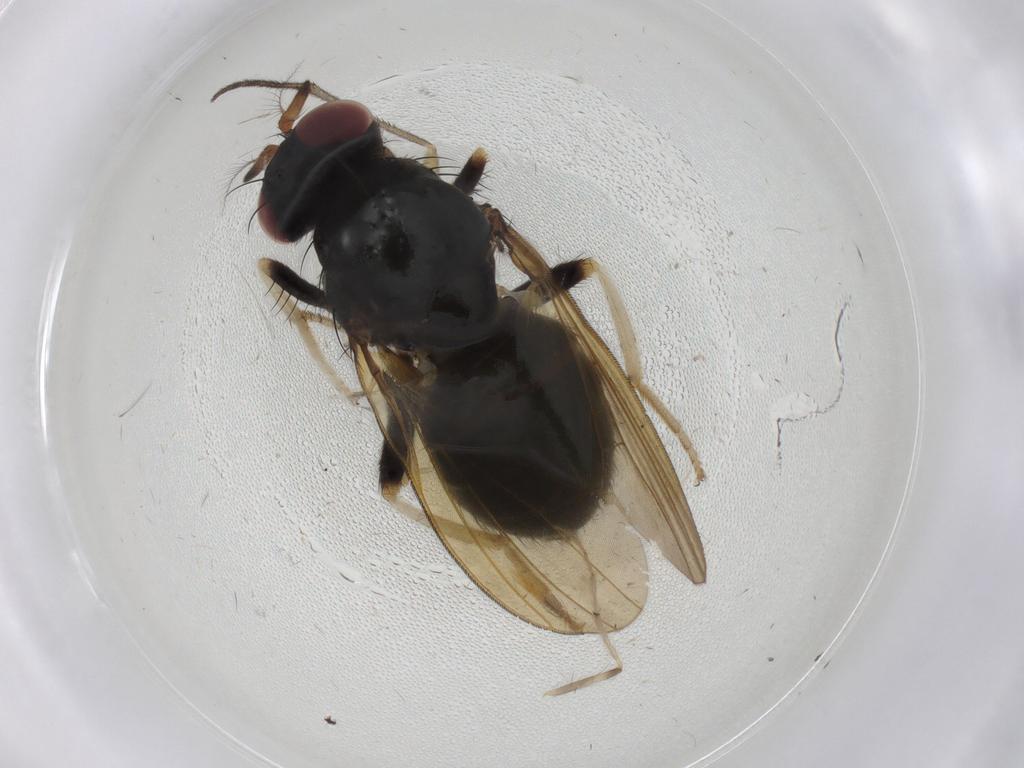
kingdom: Animalia
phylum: Arthropoda
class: Insecta
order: Diptera
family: Chironomidae
